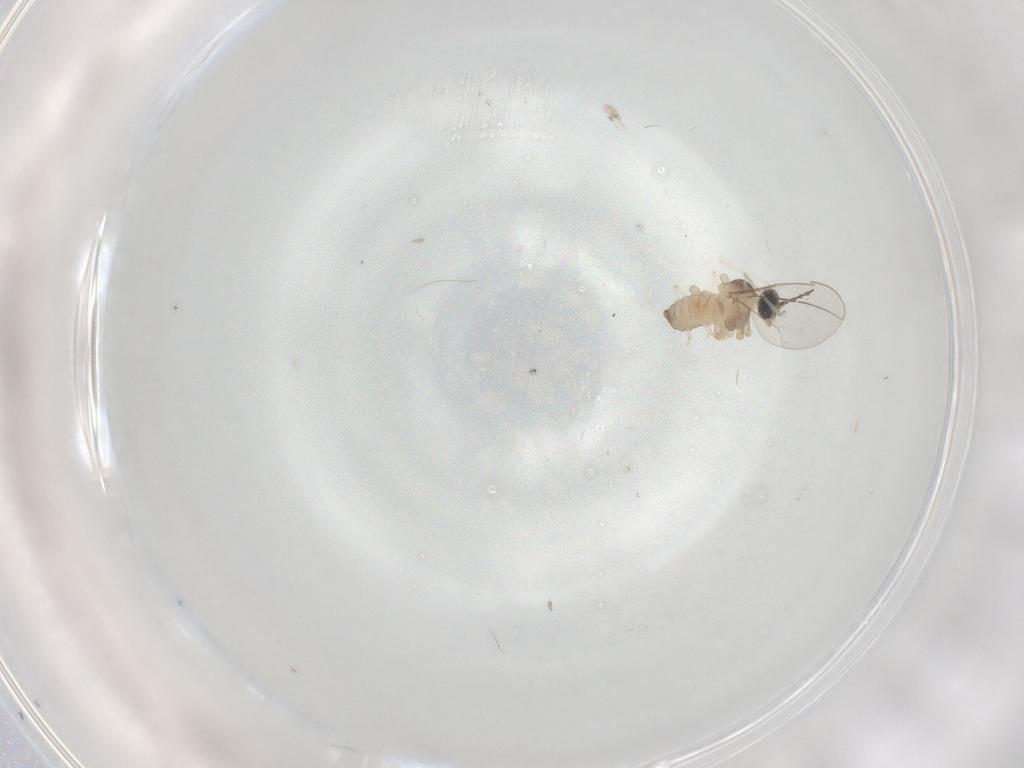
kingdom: Animalia
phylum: Arthropoda
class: Insecta
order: Diptera
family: Cecidomyiidae
